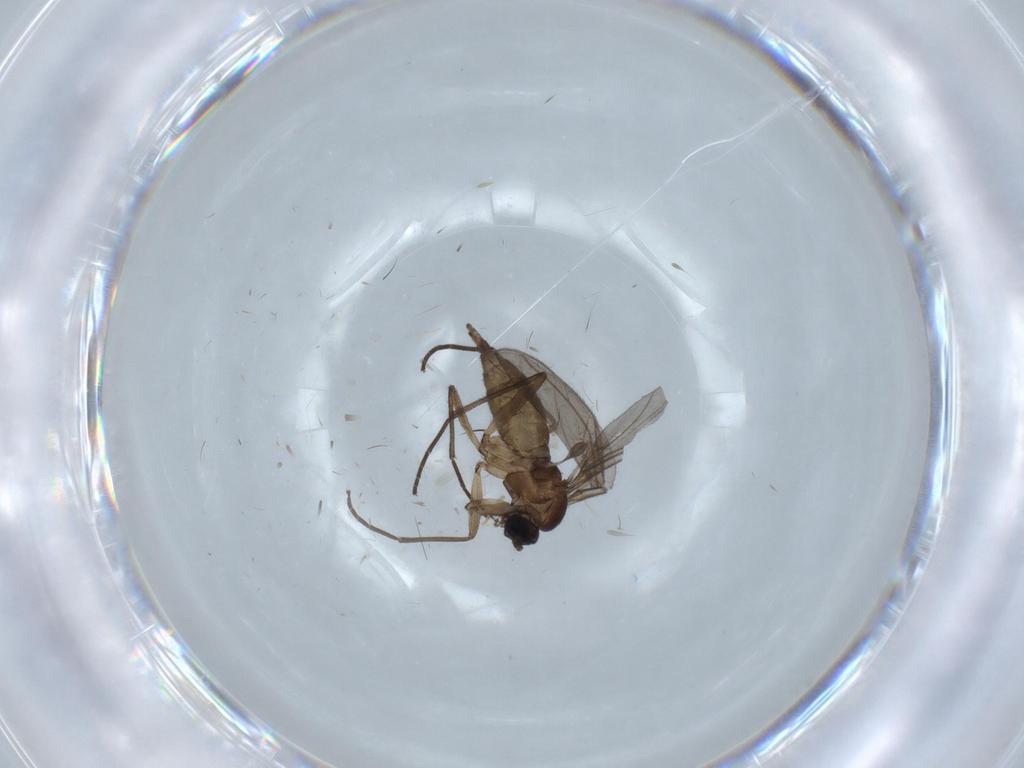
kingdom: Animalia
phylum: Arthropoda
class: Insecta
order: Diptera
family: Sciaridae
